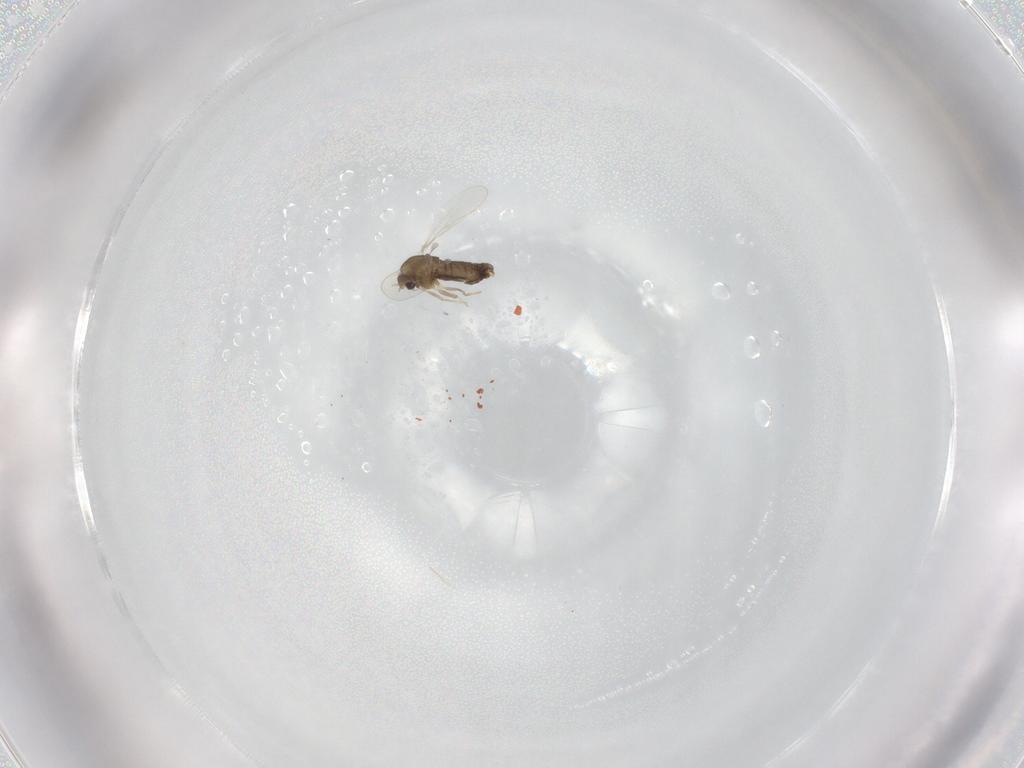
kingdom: Animalia
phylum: Arthropoda
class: Insecta
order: Diptera
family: Chironomidae
